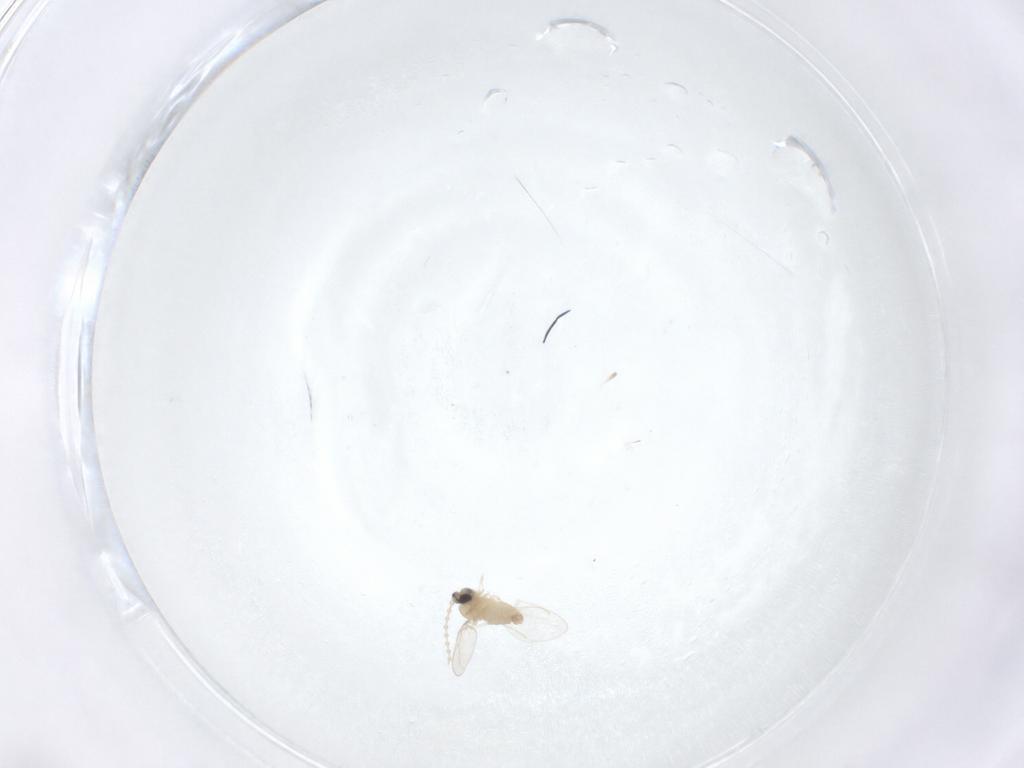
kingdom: Animalia
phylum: Arthropoda
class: Insecta
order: Diptera
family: Cecidomyiidae
